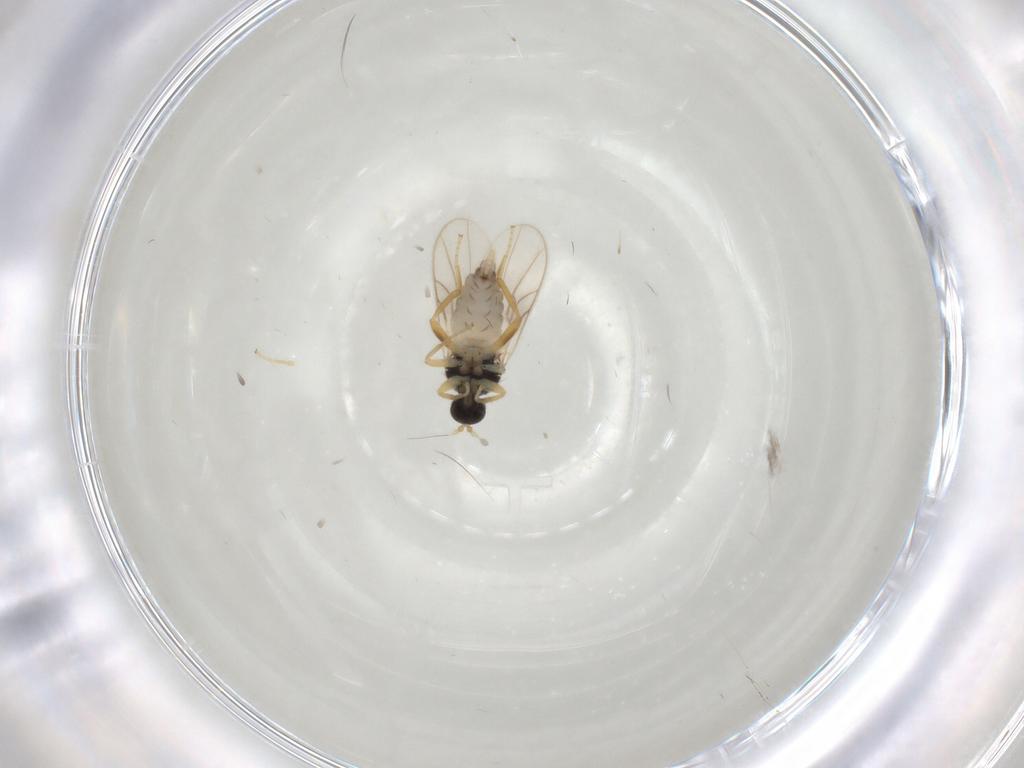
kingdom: Animalia
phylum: Arthropoda
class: Insecta
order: Diptera
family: Hybotidae
